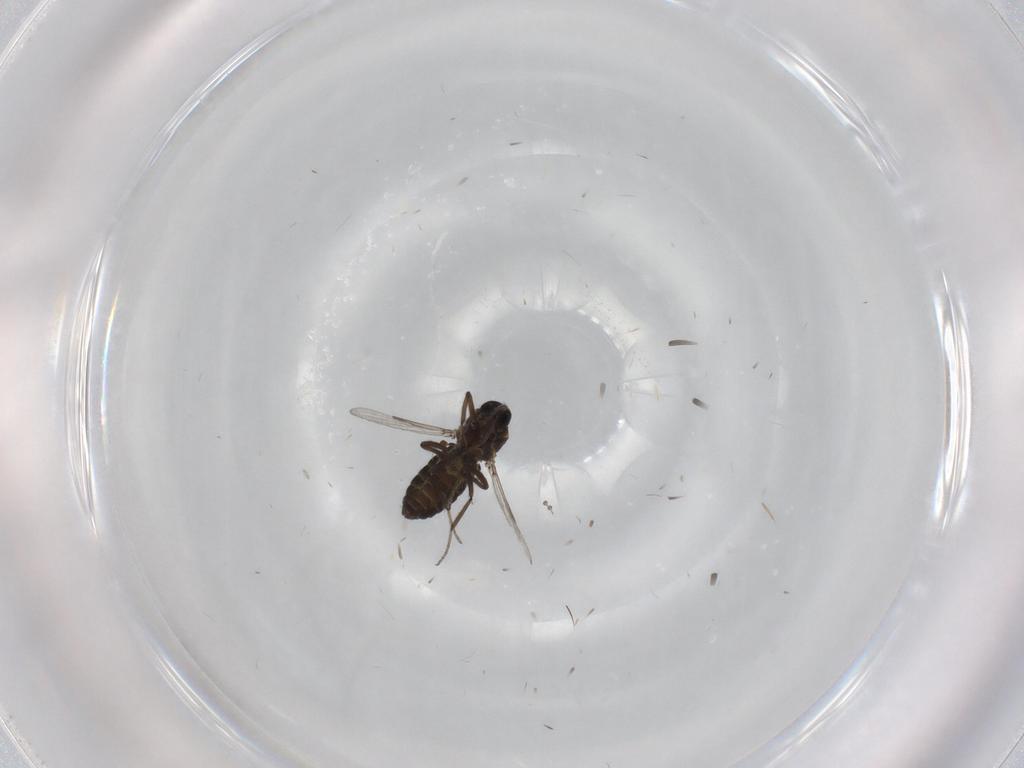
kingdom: Animalia
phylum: Arthropoda
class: Insecta
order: Diptera
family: Ceratopogonidae
